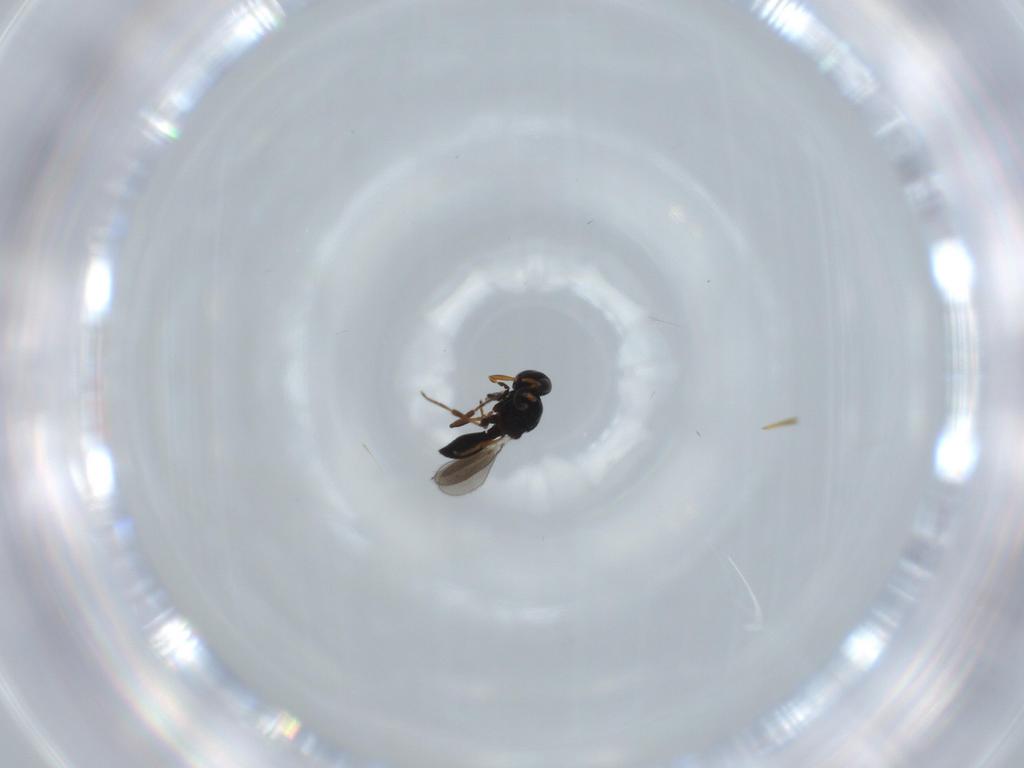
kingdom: Animalia
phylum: Arthropoda
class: Insecta
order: Hymenoptera
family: Platygastridae
